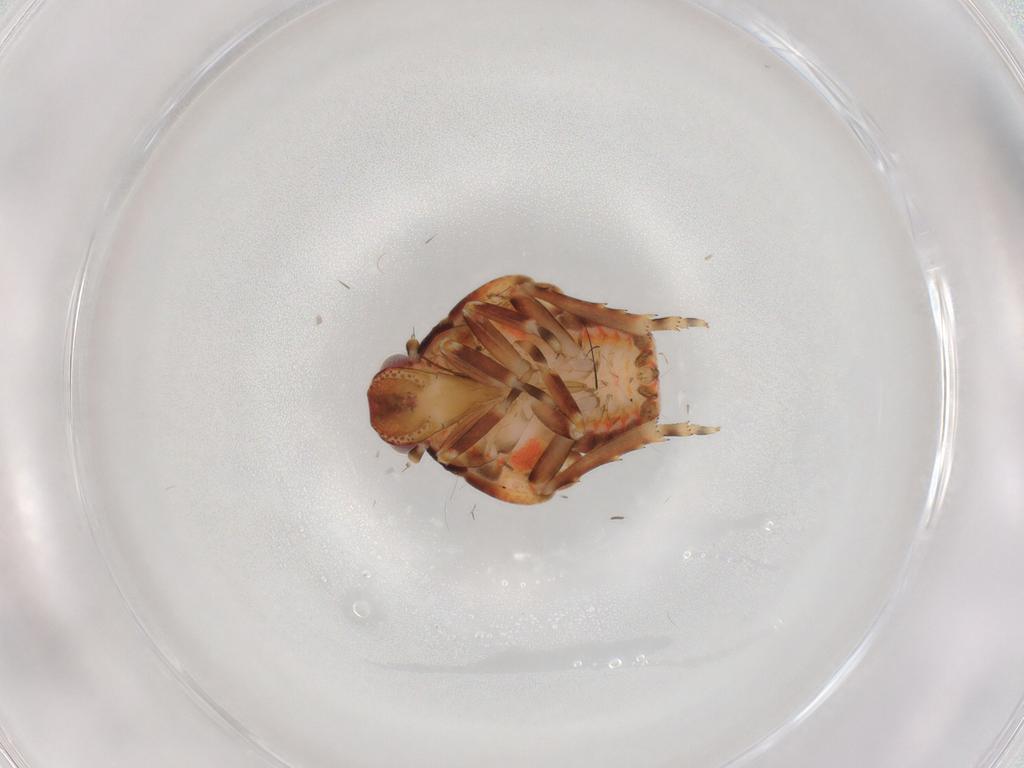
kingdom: Animalia
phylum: Arthropoda
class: Insecta
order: Hemiptera
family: Flatidae
